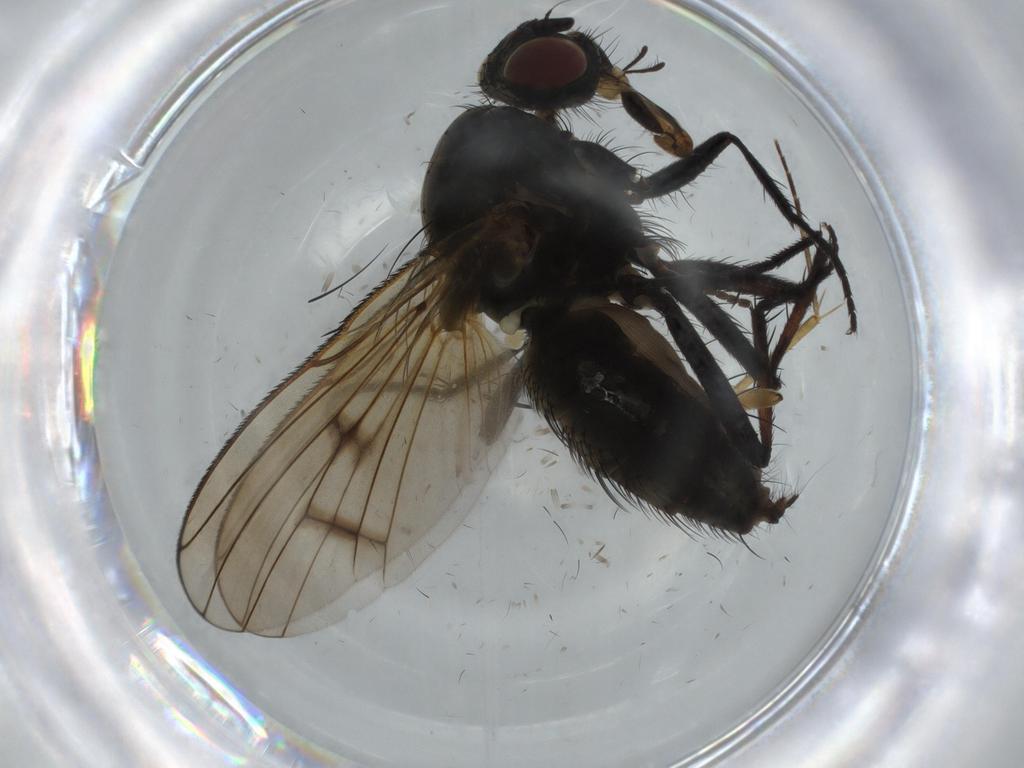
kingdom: Animalia
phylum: Arthropoda
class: Insecta
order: Diptera
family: Anthomyiidae
